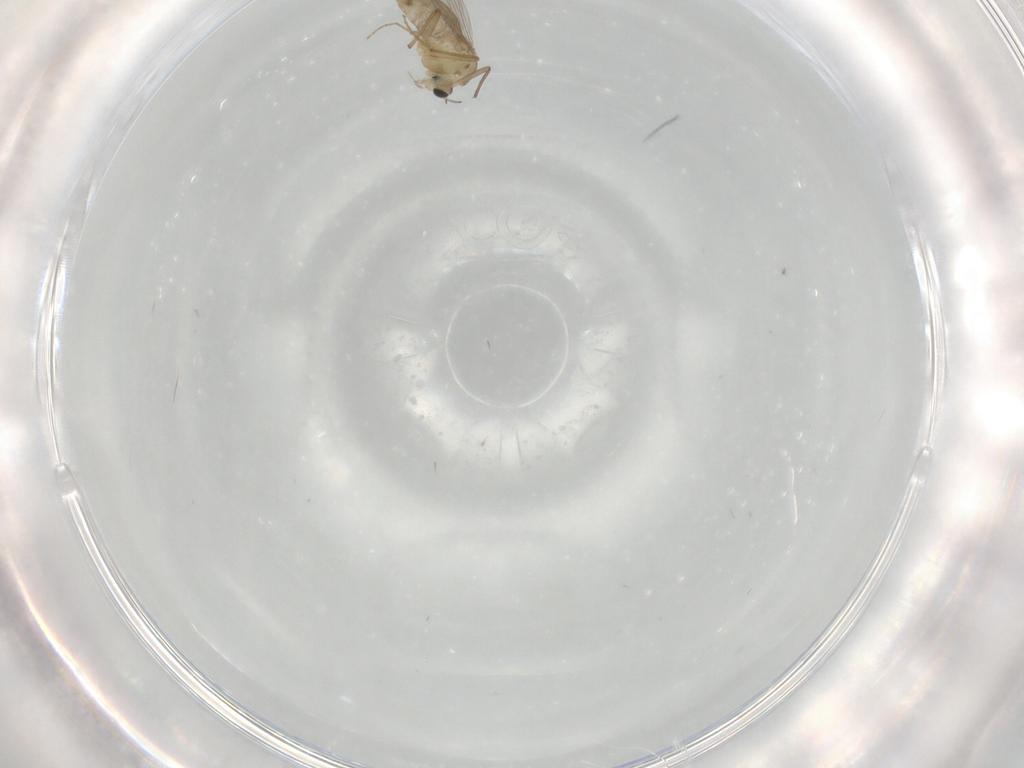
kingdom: Animalia
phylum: Arthropoda
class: Insecta
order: Diptera
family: Chironomidae
